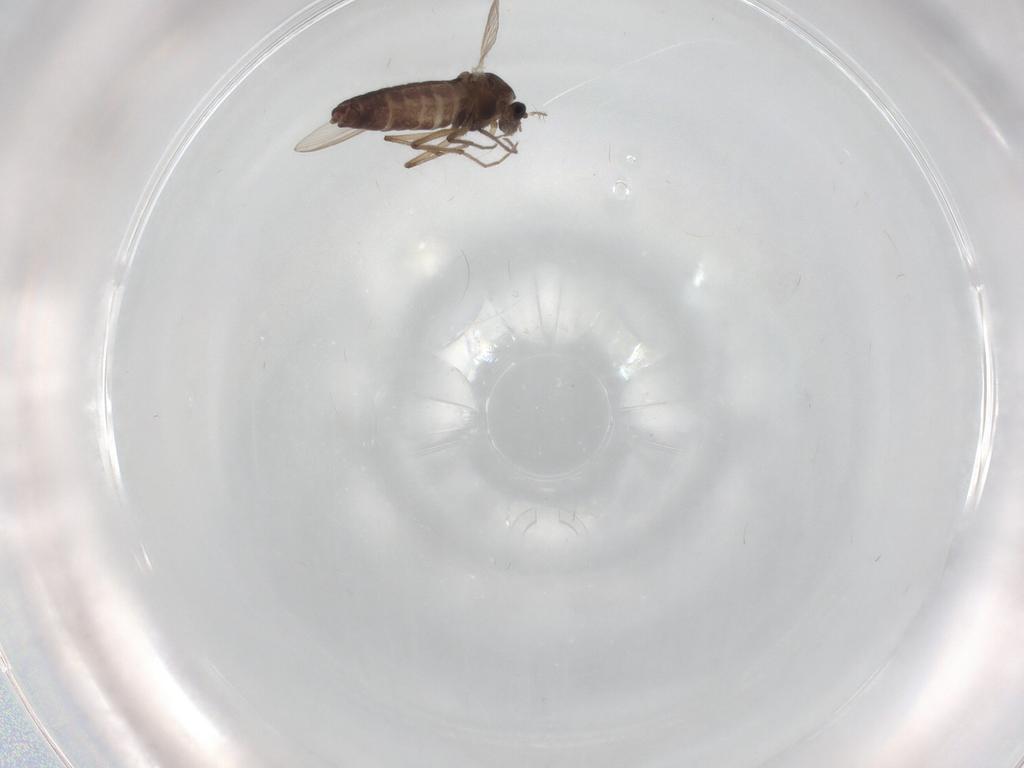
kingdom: Animalia
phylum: Arthropoda
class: Insecta
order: Diptera
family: Chironomidae
